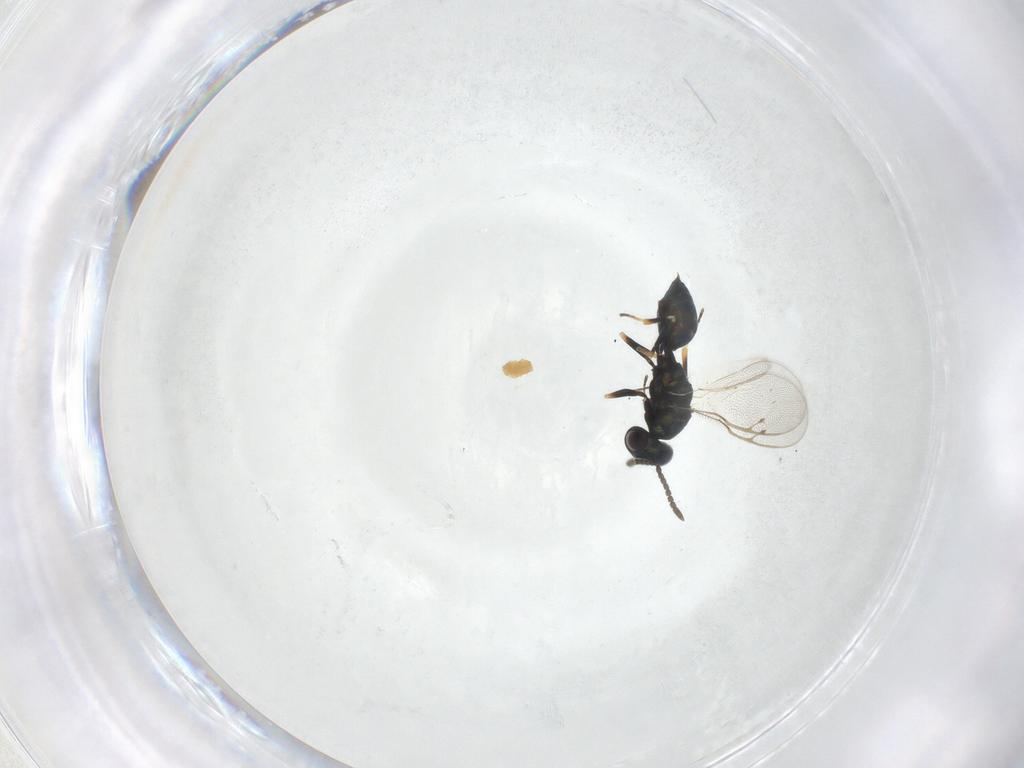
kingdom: Animalia
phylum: Arthropoda
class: Insecta
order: Hymenoptera
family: Pteromalidae
